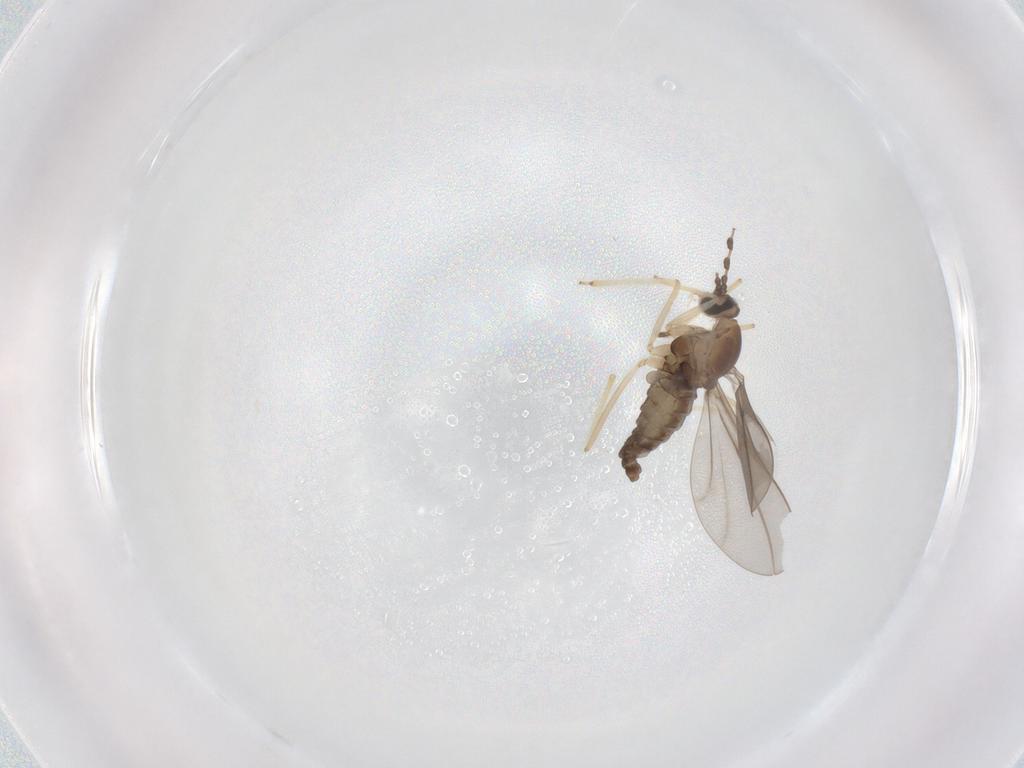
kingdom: Animalia
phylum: Arthropoda
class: Insecta
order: Diptera
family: Cecidomyiidae
